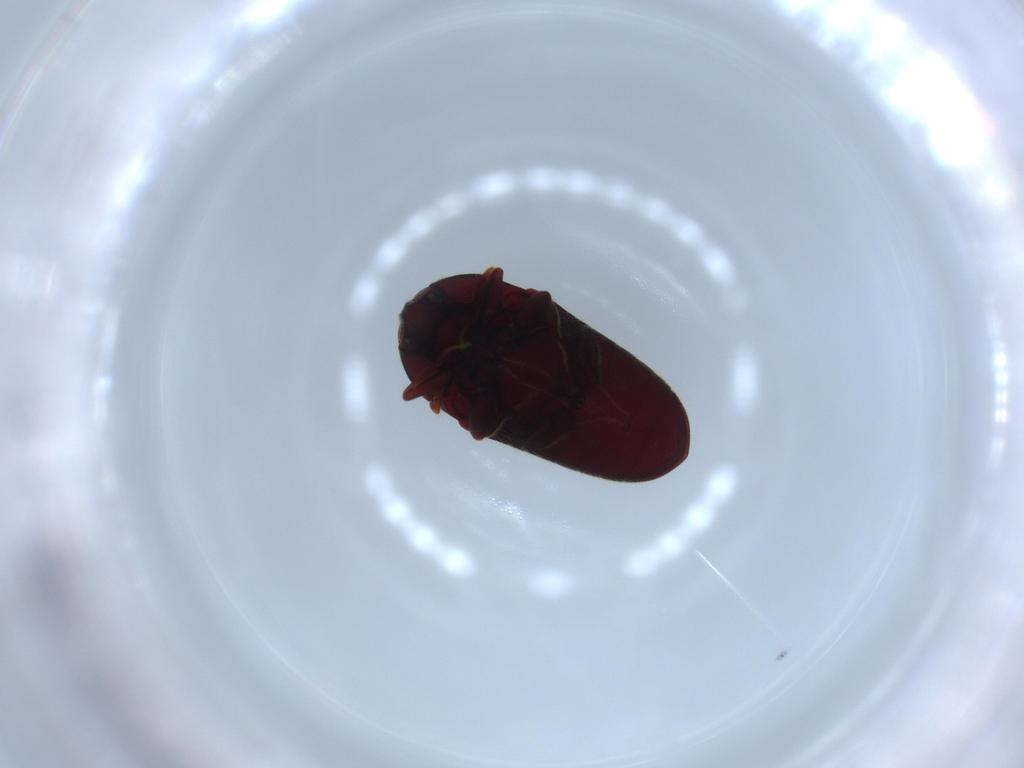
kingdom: Animalia
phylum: Arthropoda
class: Insecta
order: Coleoptera
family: Throscidae
